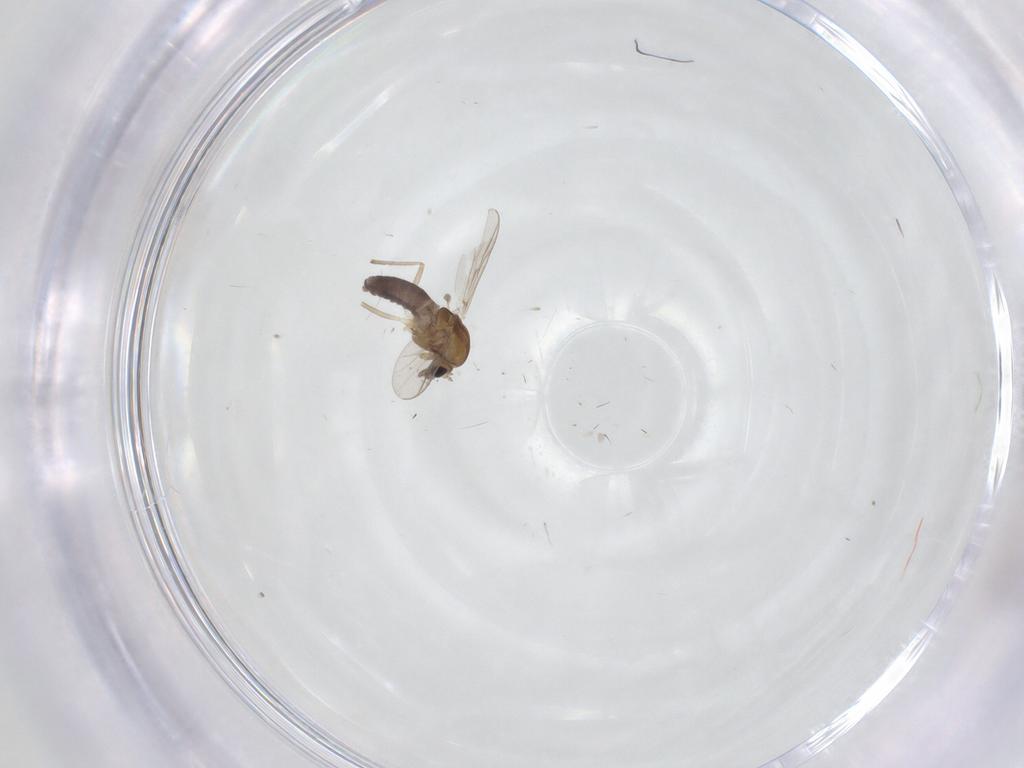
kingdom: Animalia
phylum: Arthropoda
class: Insecta
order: Diptera
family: Chironomidae
